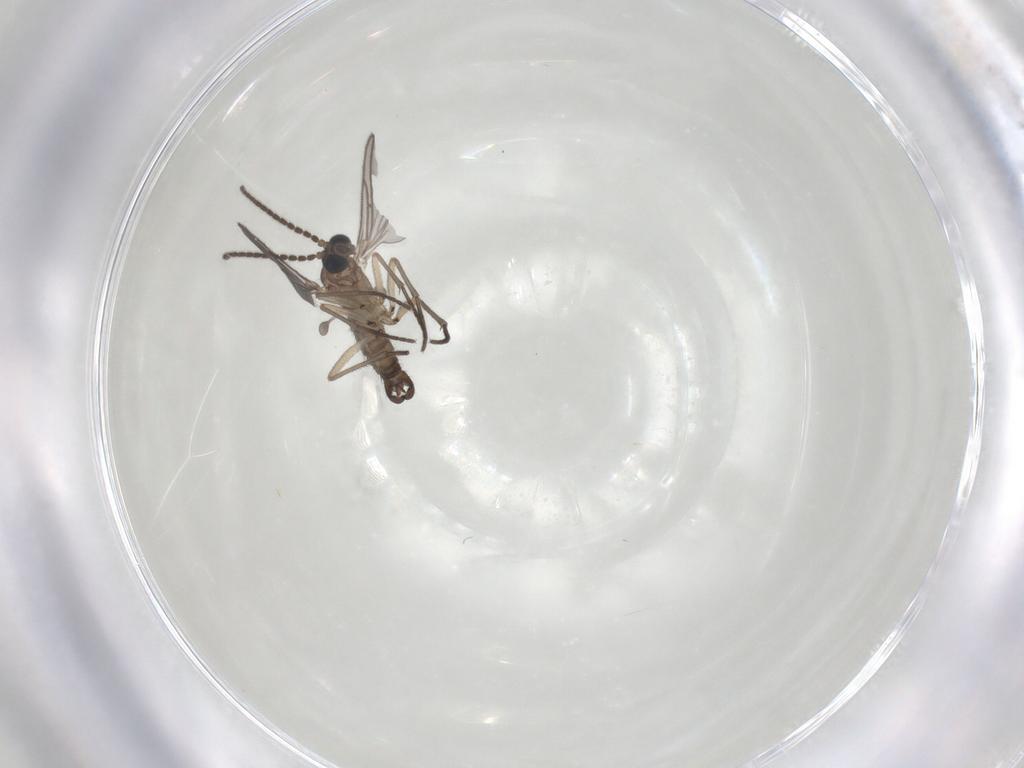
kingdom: Animalia
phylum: Arthropoda
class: Insecta
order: Diptera
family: Sciaridae
